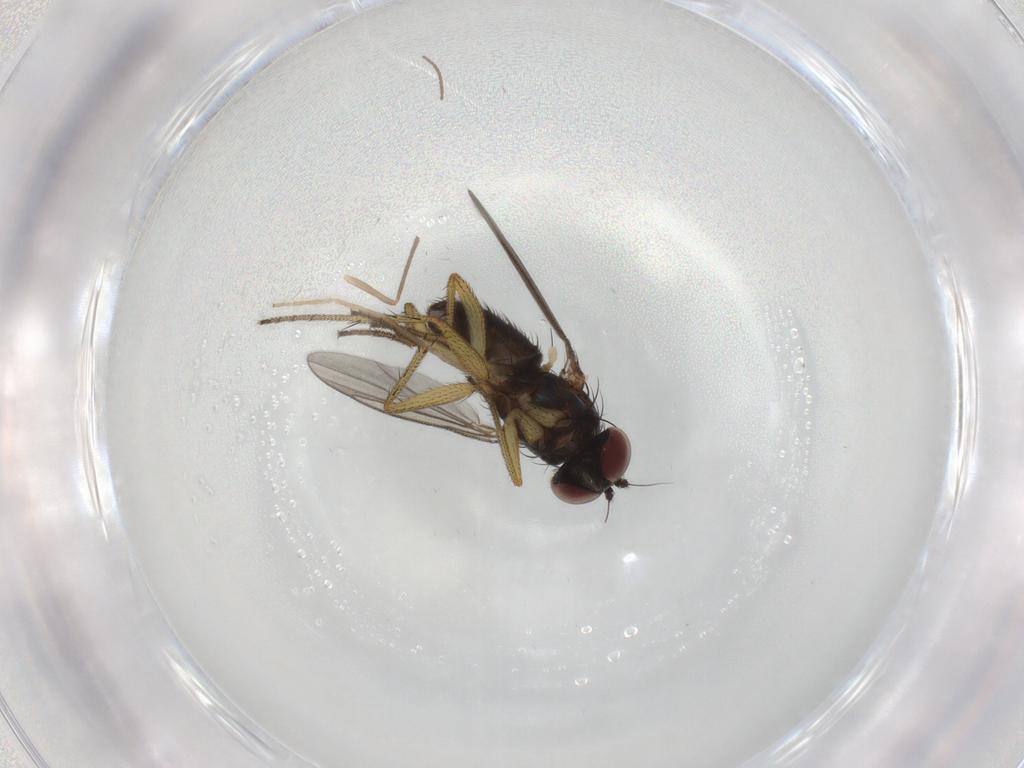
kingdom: Animalia
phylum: Arthropoda
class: Insecta
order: Diptera
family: Dolichopodidae
